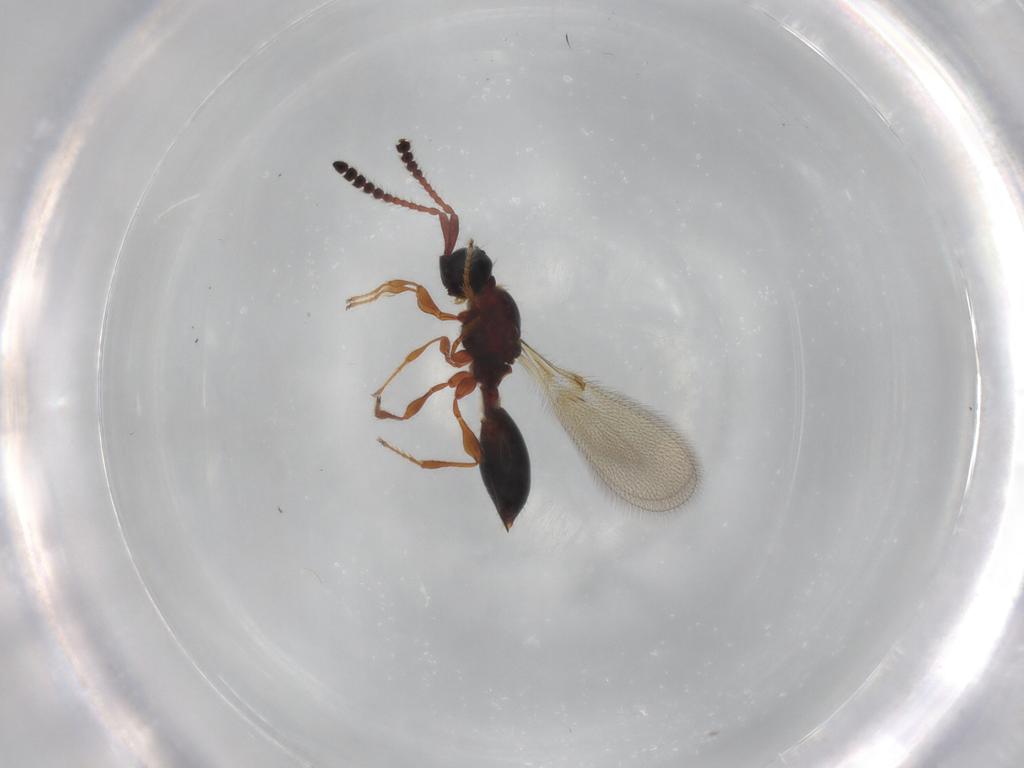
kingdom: Animalia
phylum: Arthropoda
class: Insecta
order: Hymenoptera
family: Diapriidae
